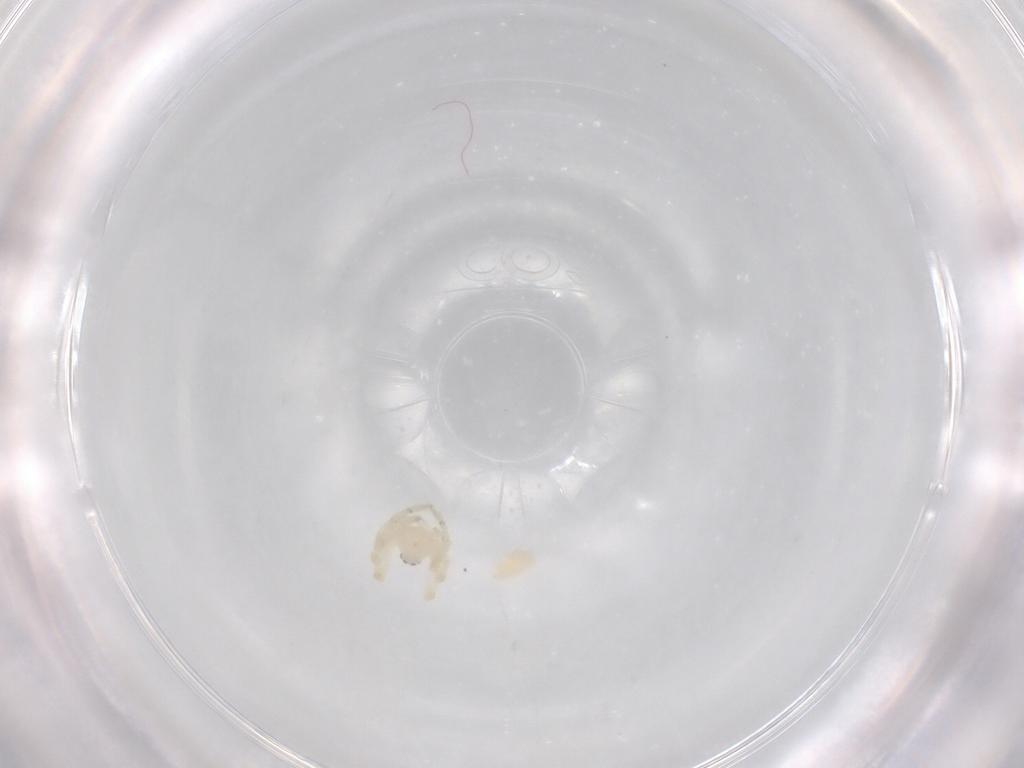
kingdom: Animalia
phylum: Arthropoda
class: Arachnida
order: Araneae
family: Theridiidae
